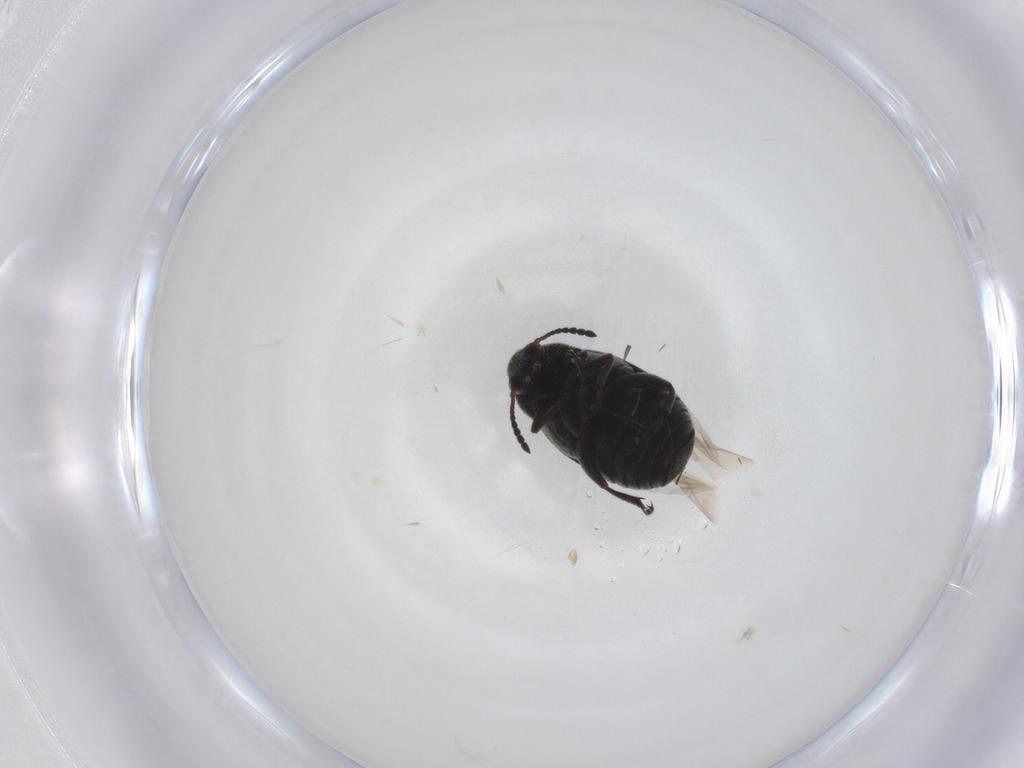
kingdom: Animalia
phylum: Arthropoda
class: Insecta
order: Coleoptera
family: Chrysomelidae
